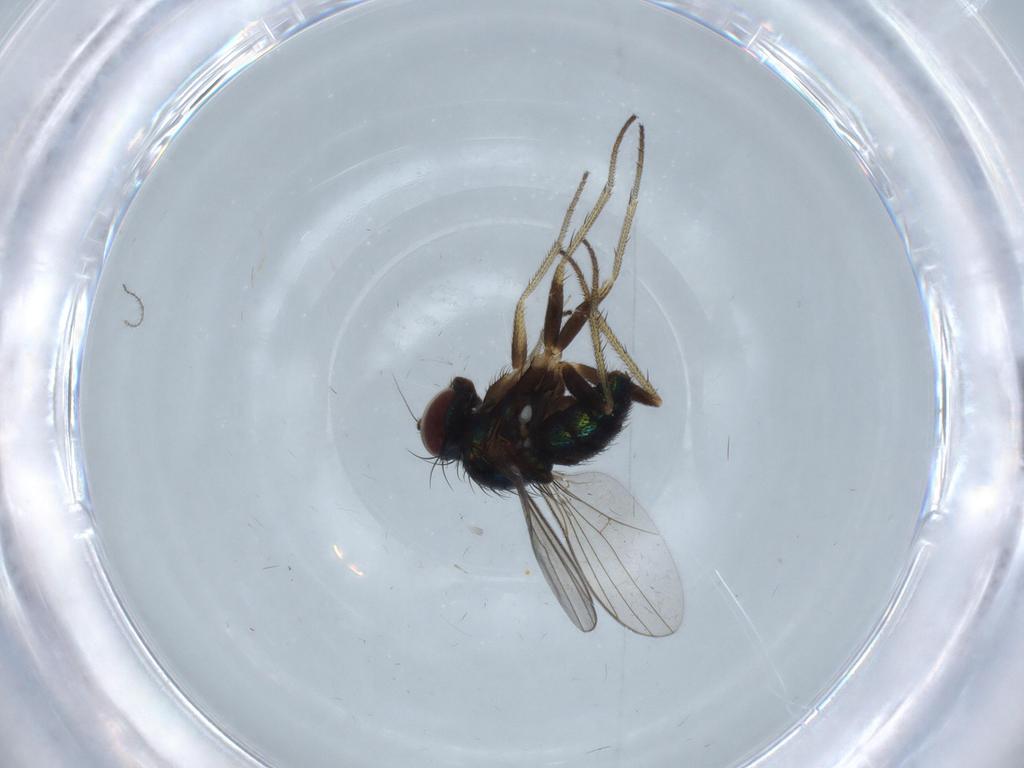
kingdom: Animalia
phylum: Arthropoda
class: Insecta
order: Diptera
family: Dolichopodidae
